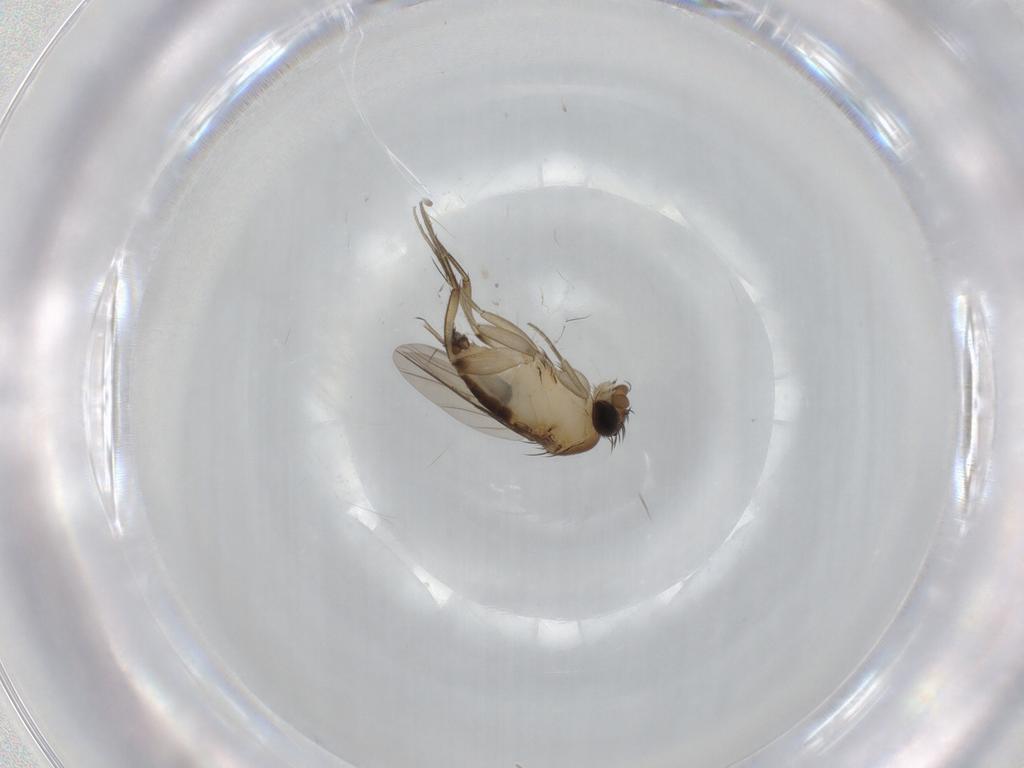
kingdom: Animalia
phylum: Arthropoda
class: Insecta
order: Diptera
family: Phoridae
